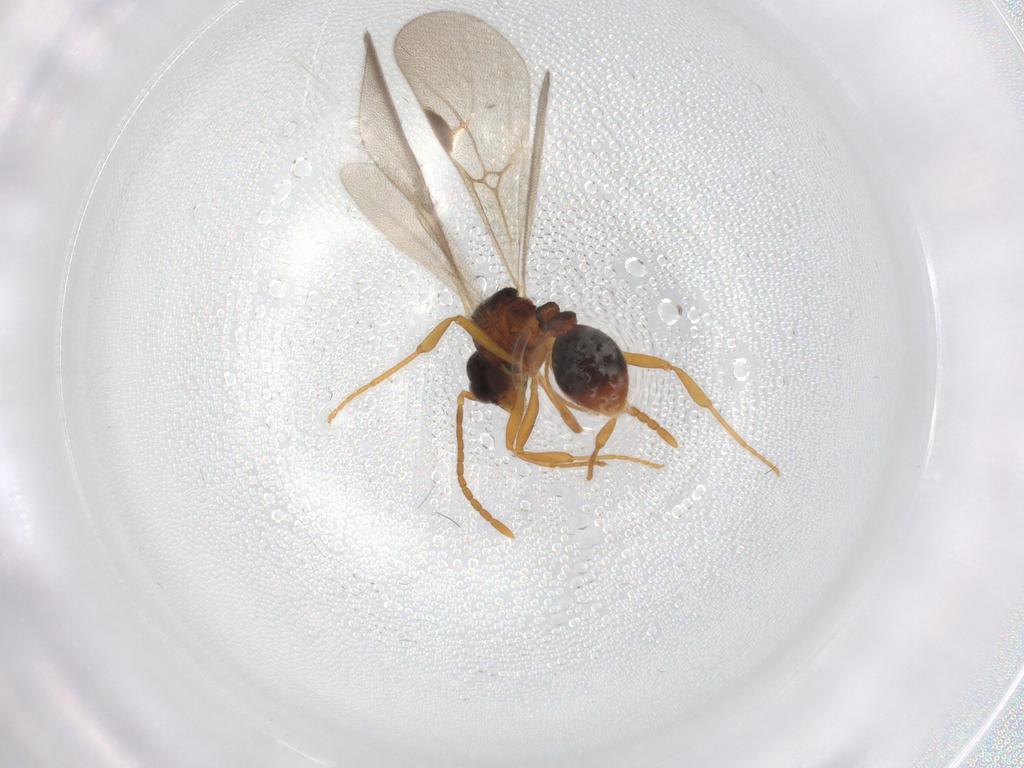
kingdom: Animalia
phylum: Arthropoda
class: Insecta
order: Hymenoptera
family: Formicidae
